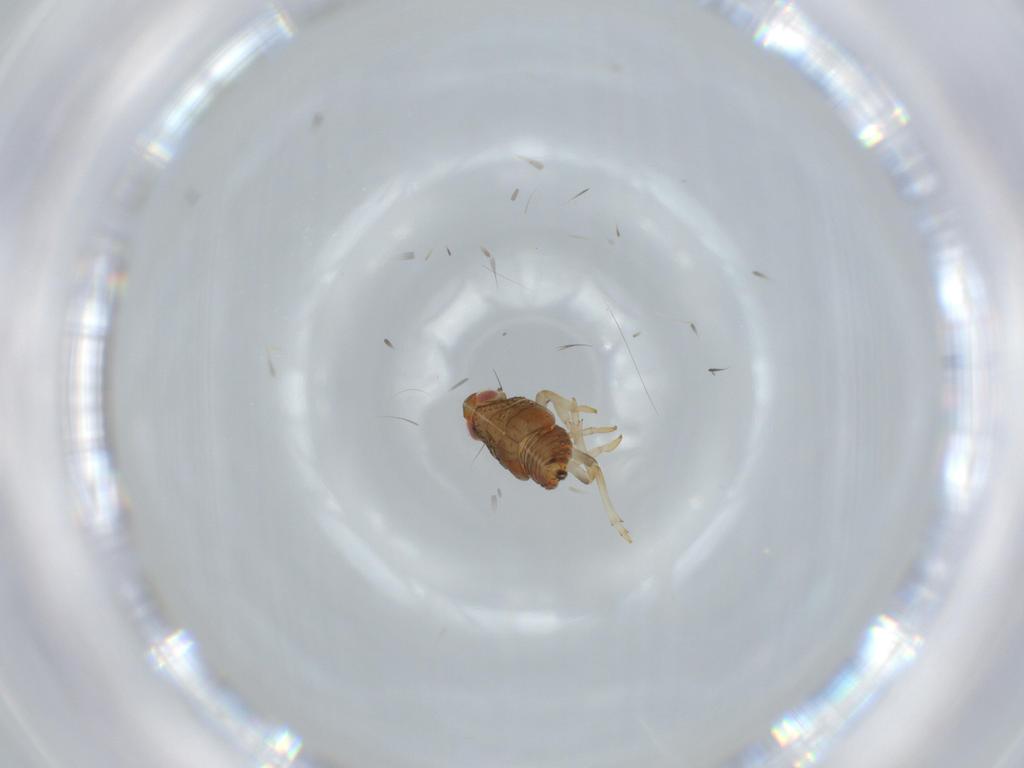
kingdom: Animalia
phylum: Arthropoda
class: Insecta
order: Hemiptera
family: Issidae
